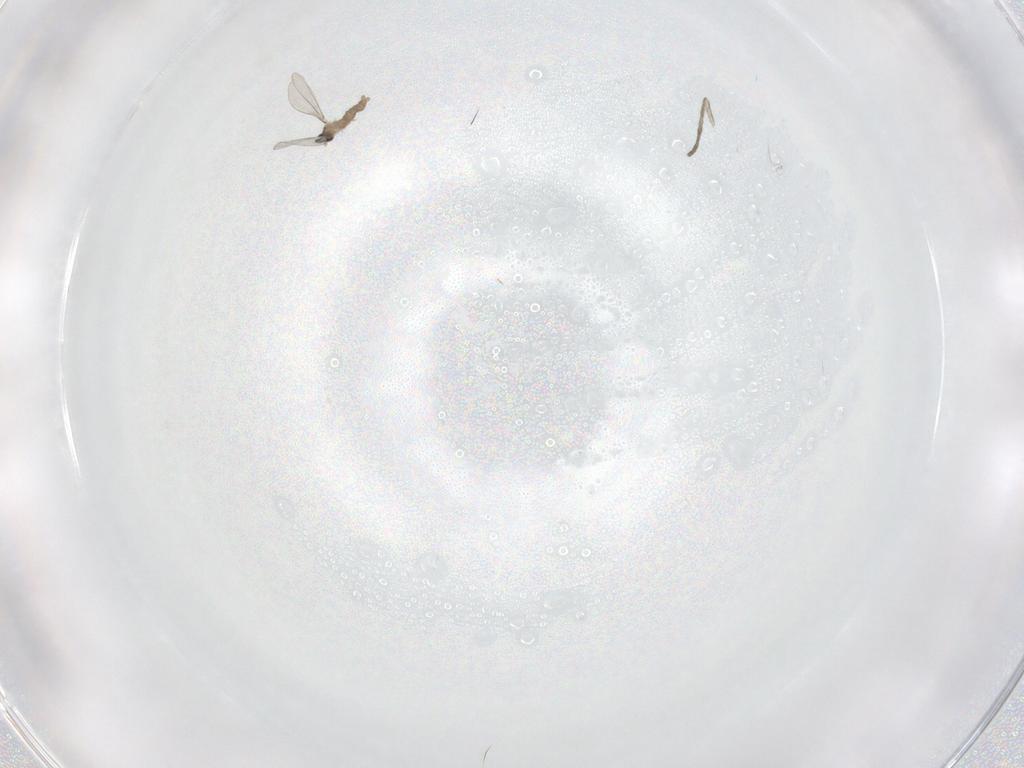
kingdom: Animalia
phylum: Arthropoda
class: Insecta
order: Diptera
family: Cecidomyiidae
